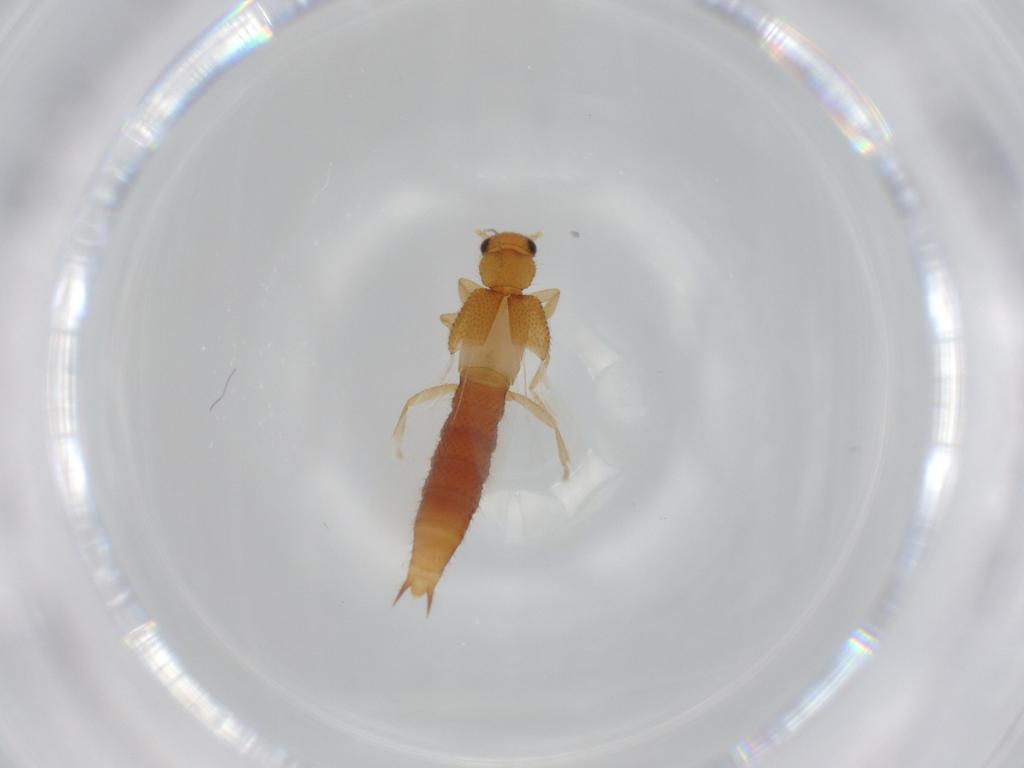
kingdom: Animalia
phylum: Arthropoda
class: Insecta
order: Coleoptera
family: Staphylinidae
